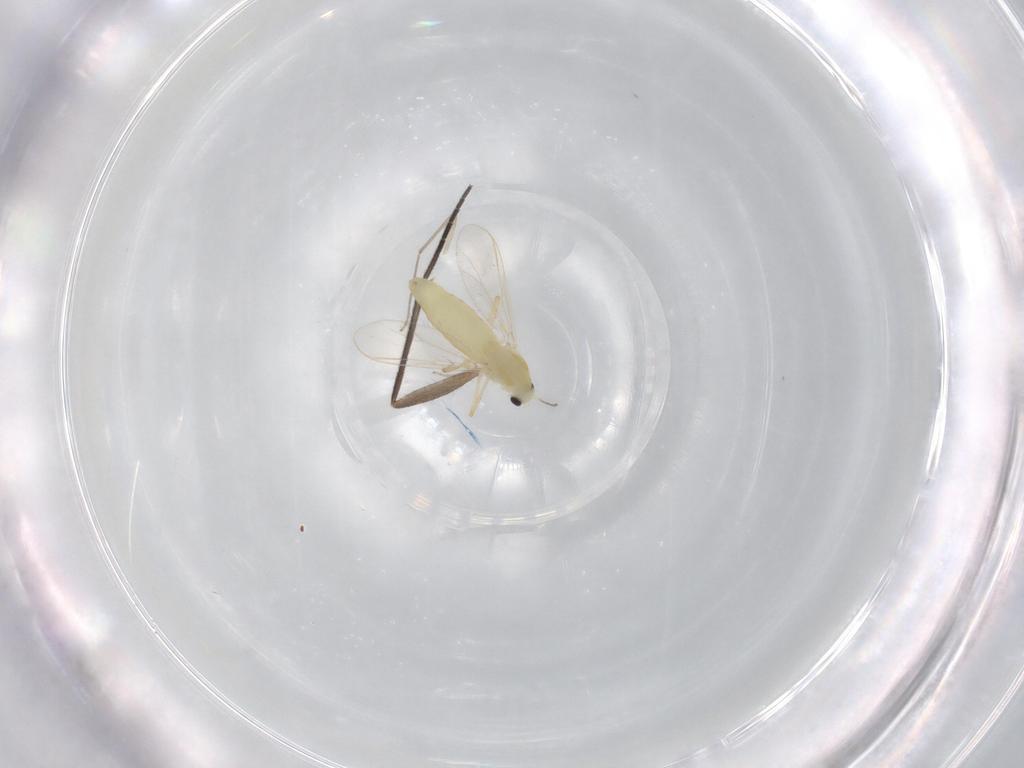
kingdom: Animalia
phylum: Arthropoda
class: Insecta
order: Diptera
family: Chironomidae
